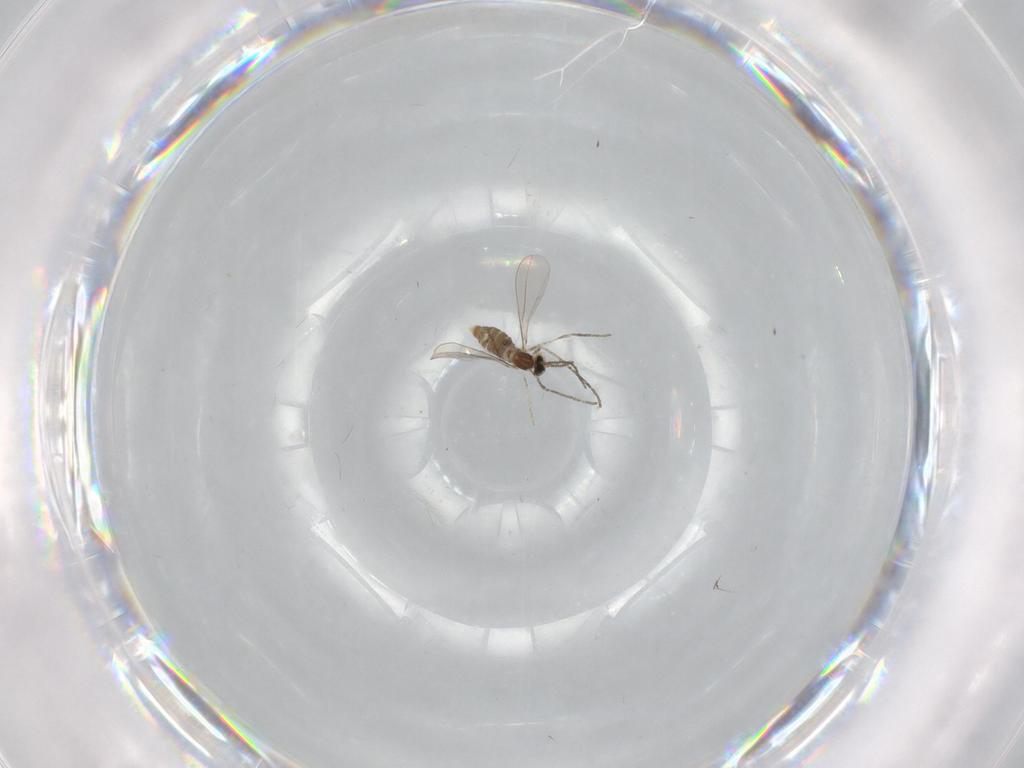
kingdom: Animalia
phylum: Arthropoda
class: Insecta
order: Diptera
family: Cecidomyiidae
